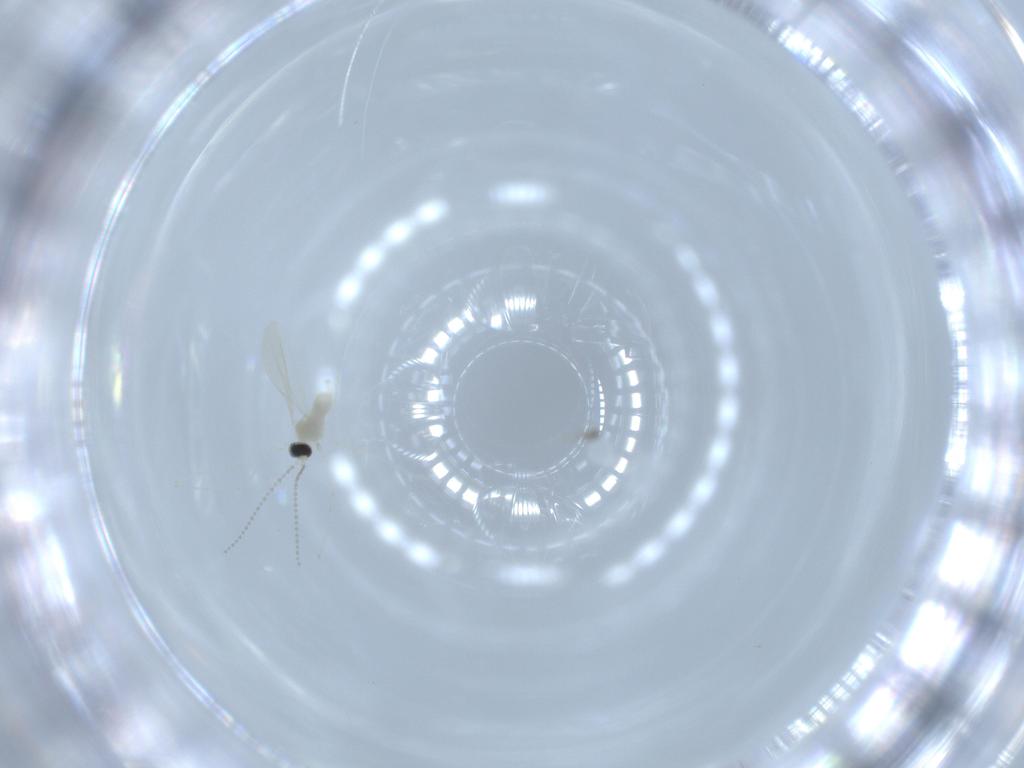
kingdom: Animalia
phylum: Arthropoda
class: Insecta
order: Diptera
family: Cecidomyiidae
